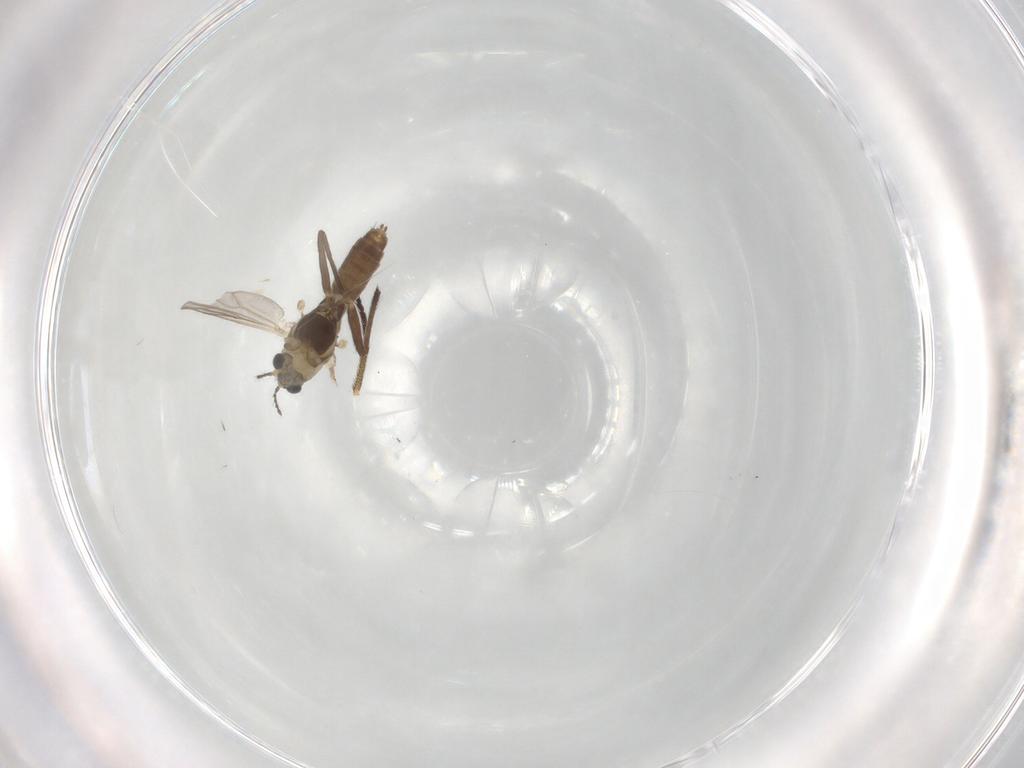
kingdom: Animalia
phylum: Arthropoda
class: Insecta
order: Diptera
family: Chironomidae
